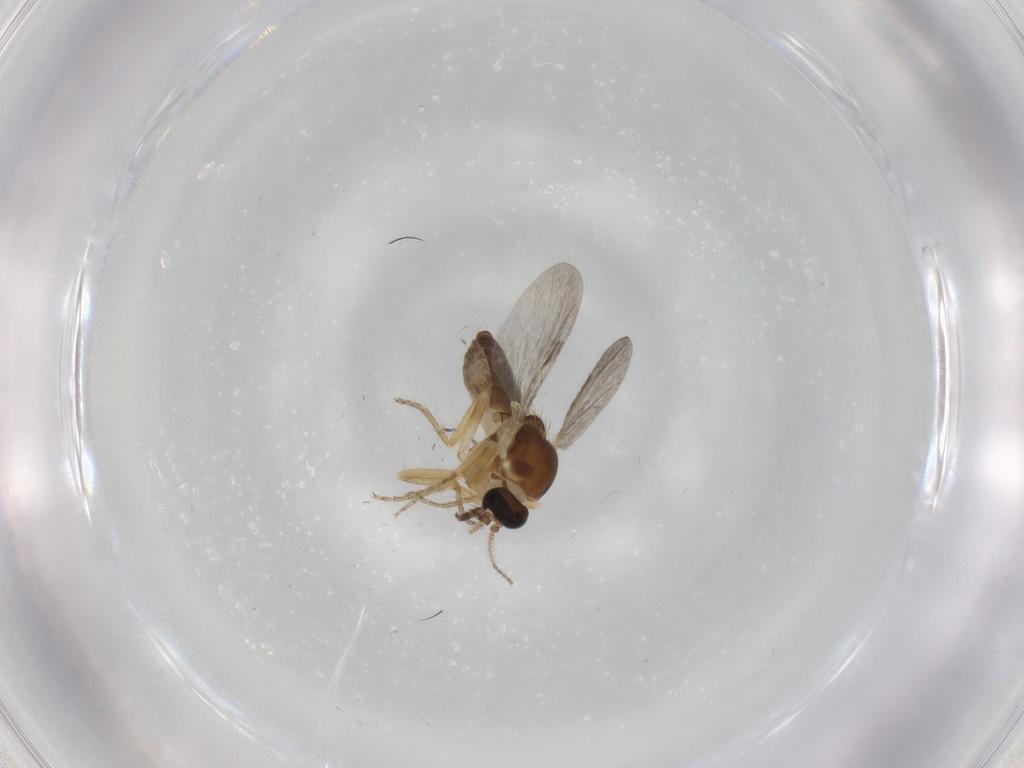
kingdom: Animalia
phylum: Arthropoda
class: Insecta
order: Diptera
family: Ceratopogonidae
